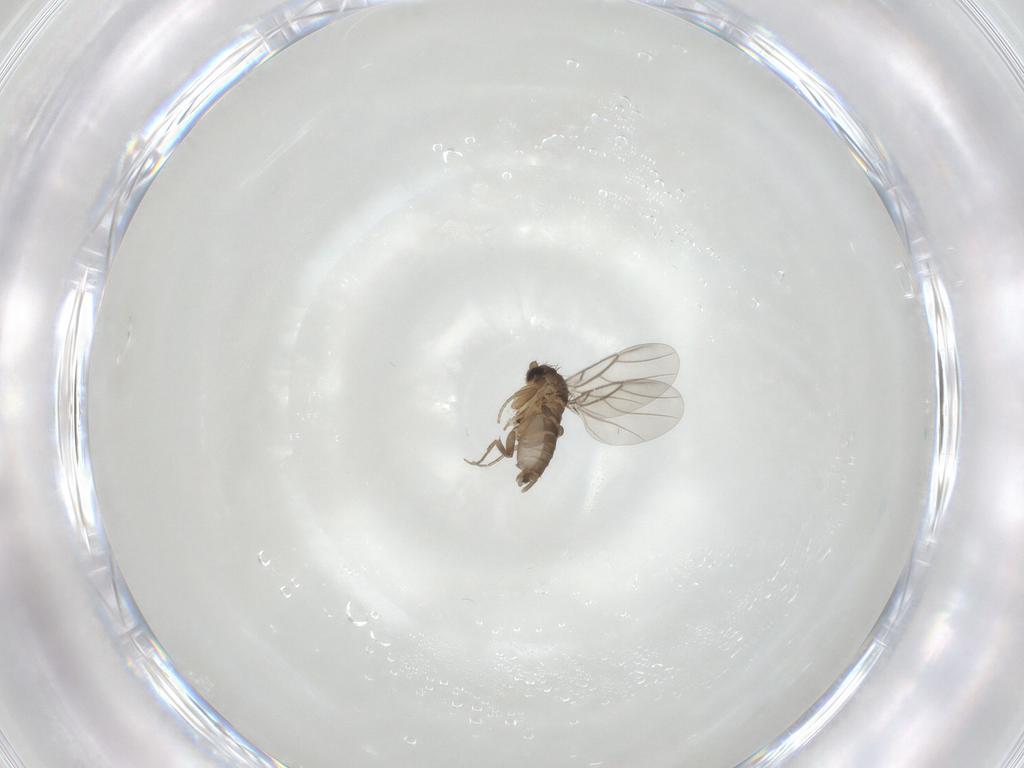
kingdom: Animalia
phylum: Arthropoda
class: Insecta
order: Diptera
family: Phoridae
